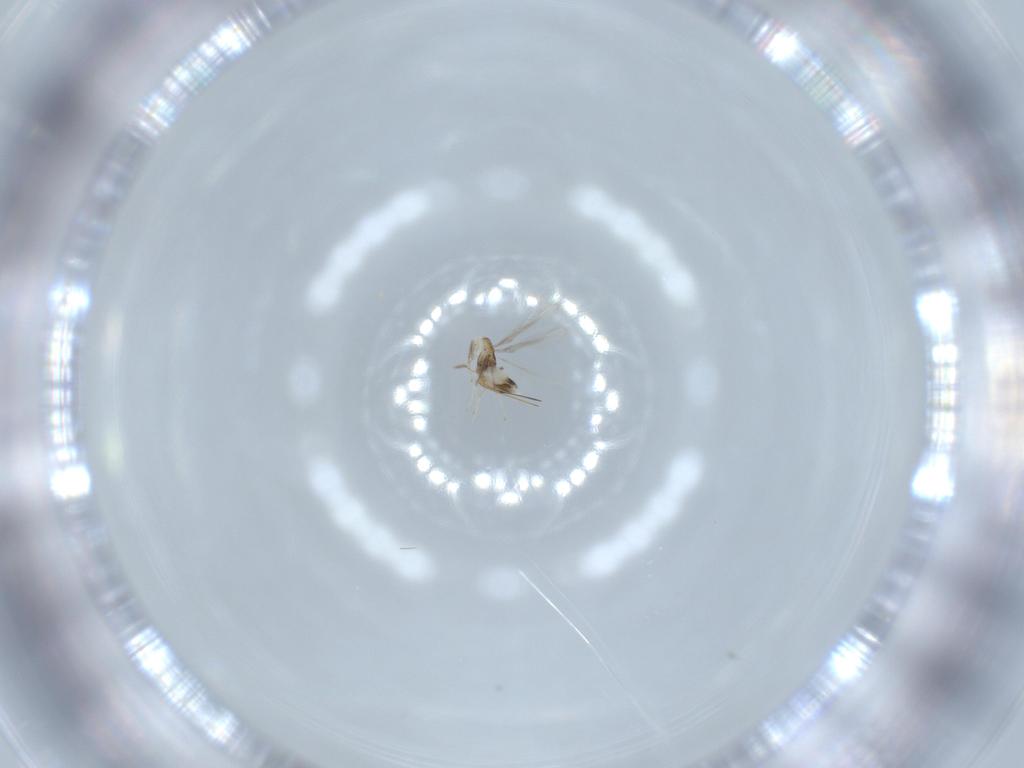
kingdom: Animalia
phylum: Arthropoda
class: Insecta
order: Hymenoptera
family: Mymaridae
